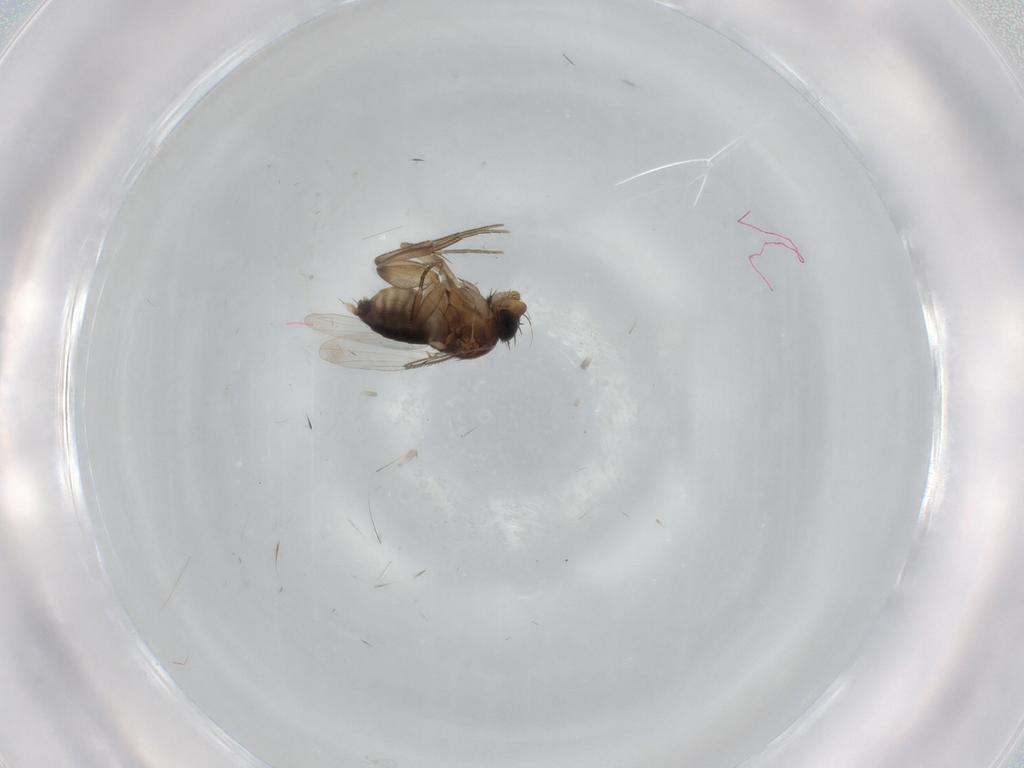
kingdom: Animalia
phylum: Arthropoda
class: Insecta
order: Diptera
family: Phoridae
